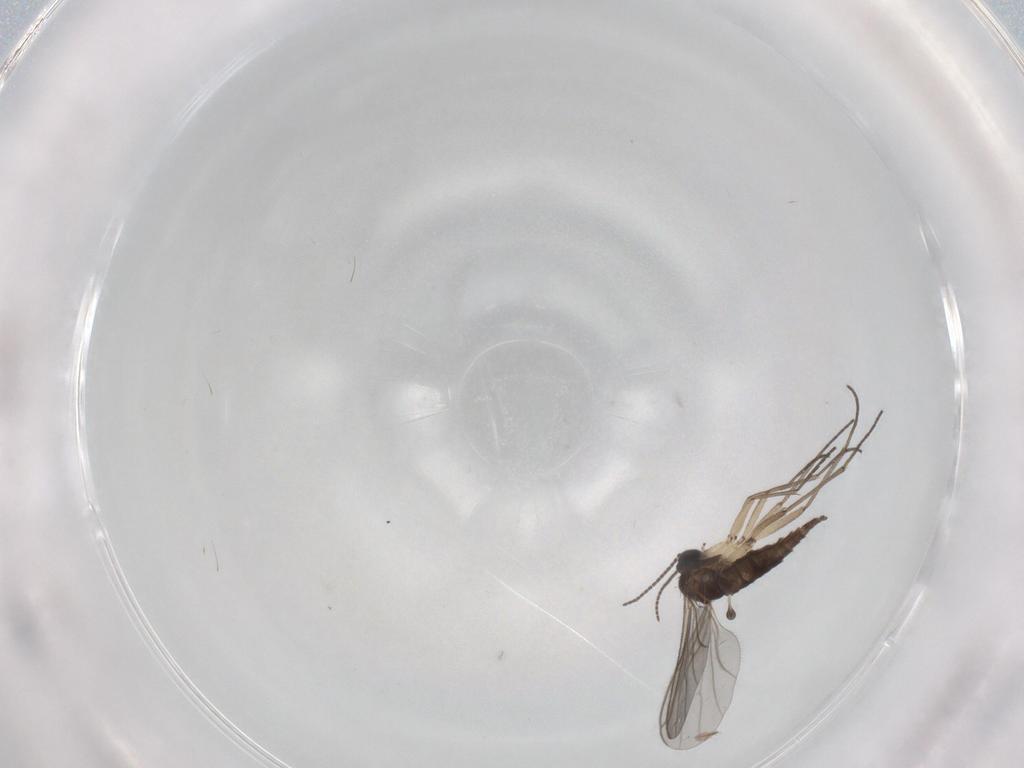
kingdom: Animalia
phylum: Arthropoda
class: Insecta
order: Diptera
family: Sciaridae
